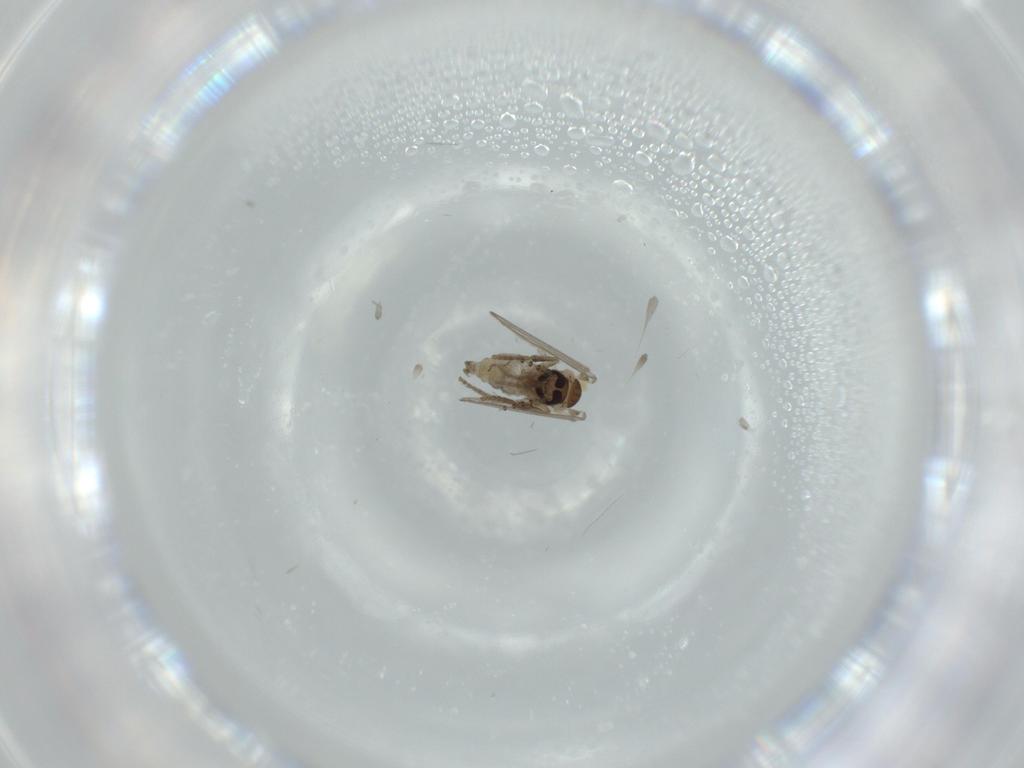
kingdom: Animalia
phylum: Arthropoda
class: Insecta
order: Diptera
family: Psychodidae
